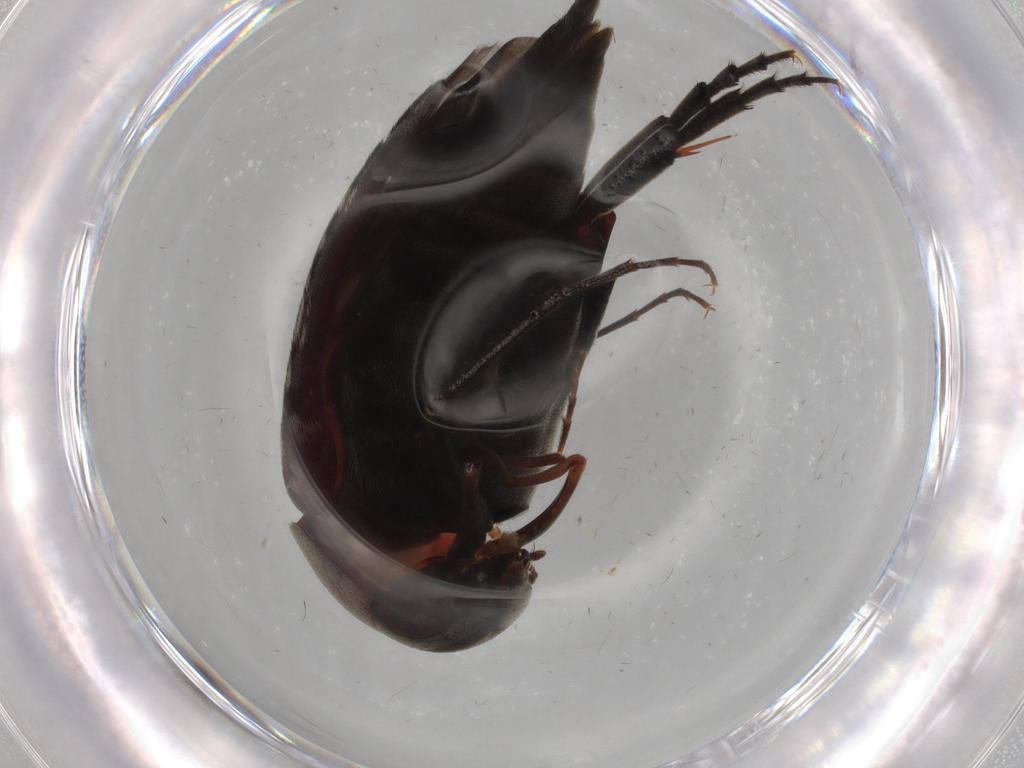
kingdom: Animalia
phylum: Arthropoda
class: Insecta
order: Coleoptera
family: Mordellidae
